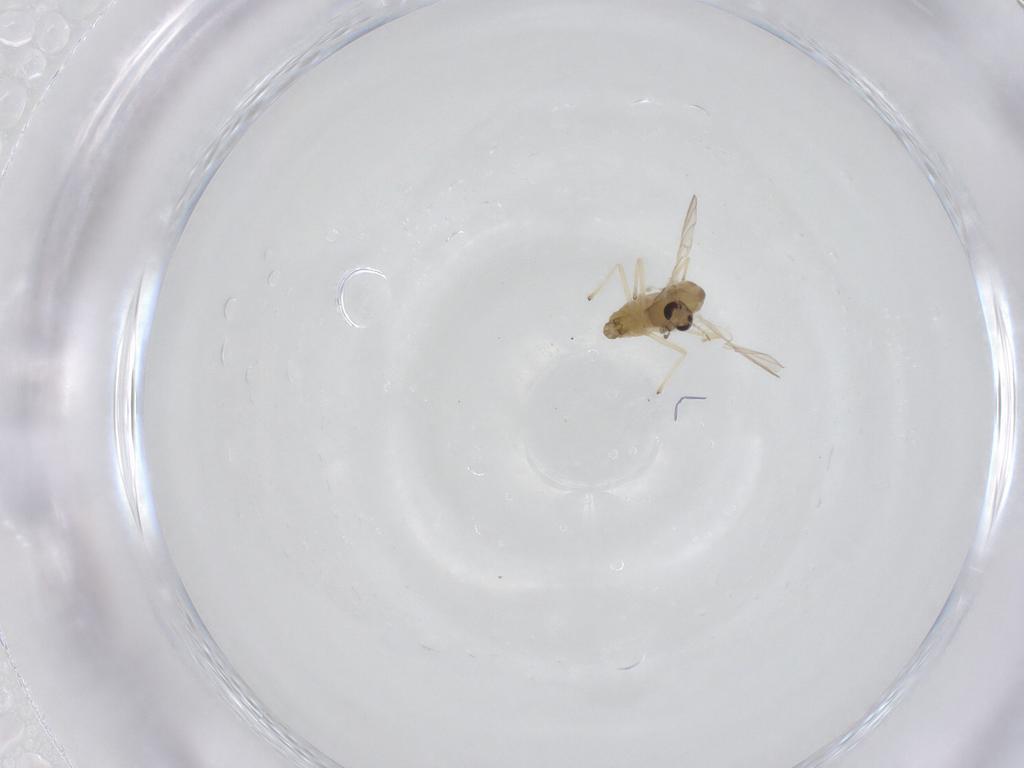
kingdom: Animalia
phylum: Arthropoda
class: Insecta
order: Diptera
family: Chironomidae
